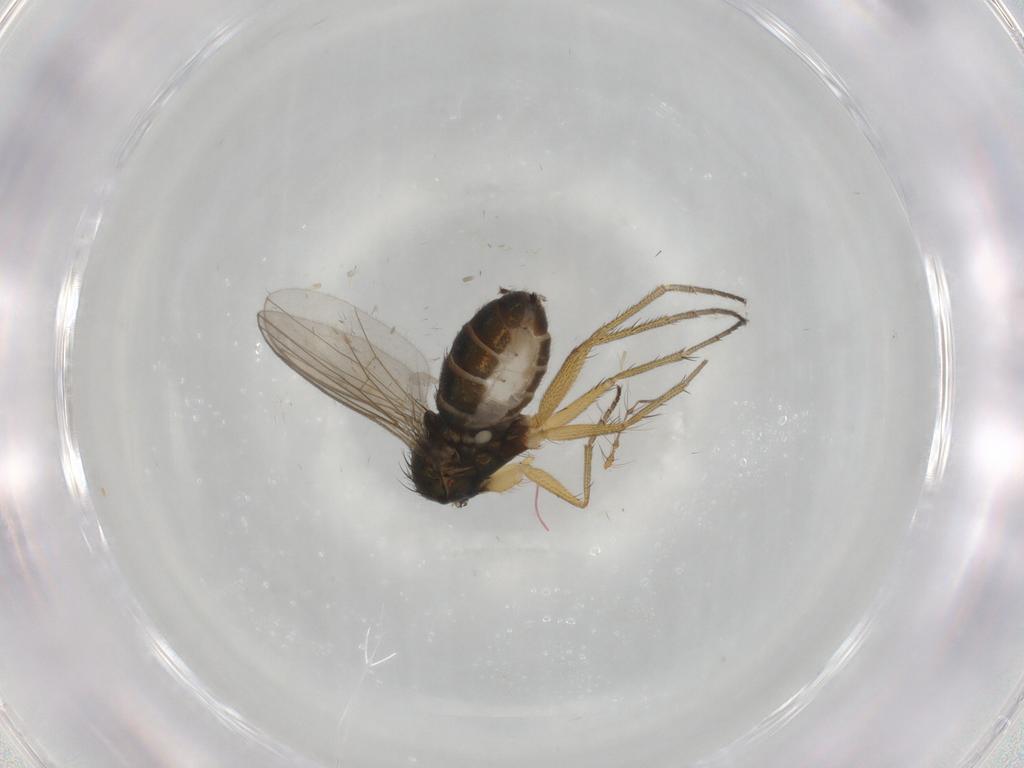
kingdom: Animalia
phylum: Arthropoda
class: Insecta
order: Diptera
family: Dolichopodidae
